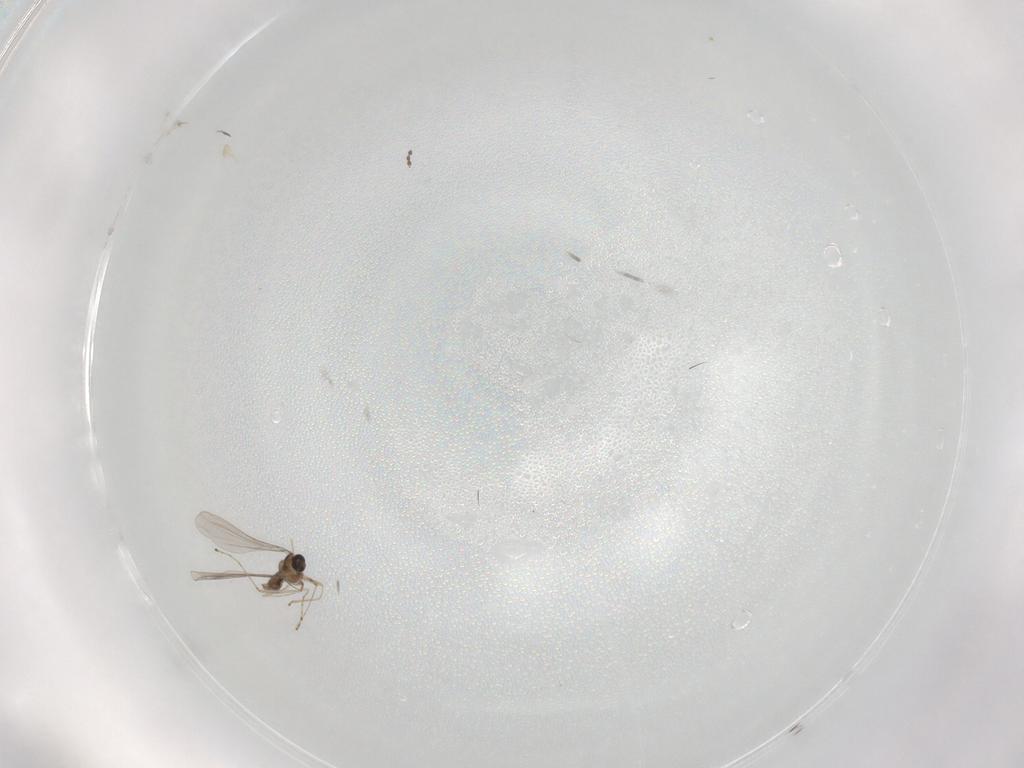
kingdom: Animalia
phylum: Arthropoda
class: Insecta
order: Diptera
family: Sciaridae
